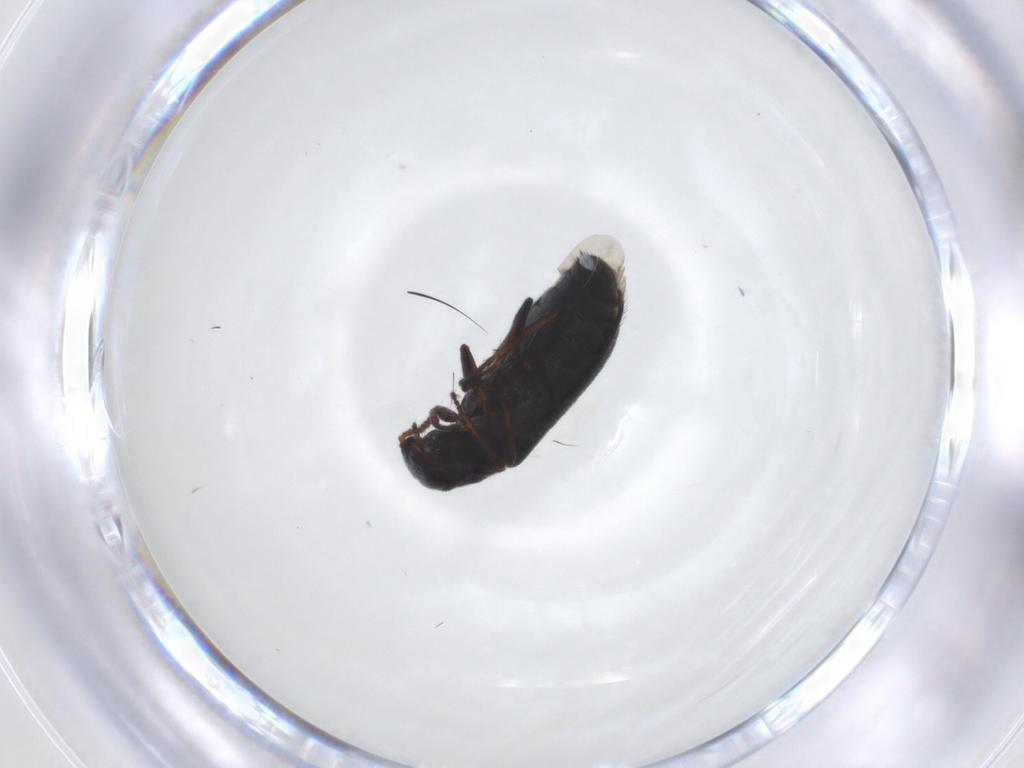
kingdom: Animalia
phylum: Arthropoda
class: Insecta
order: Coleoptera
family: Melyridae
